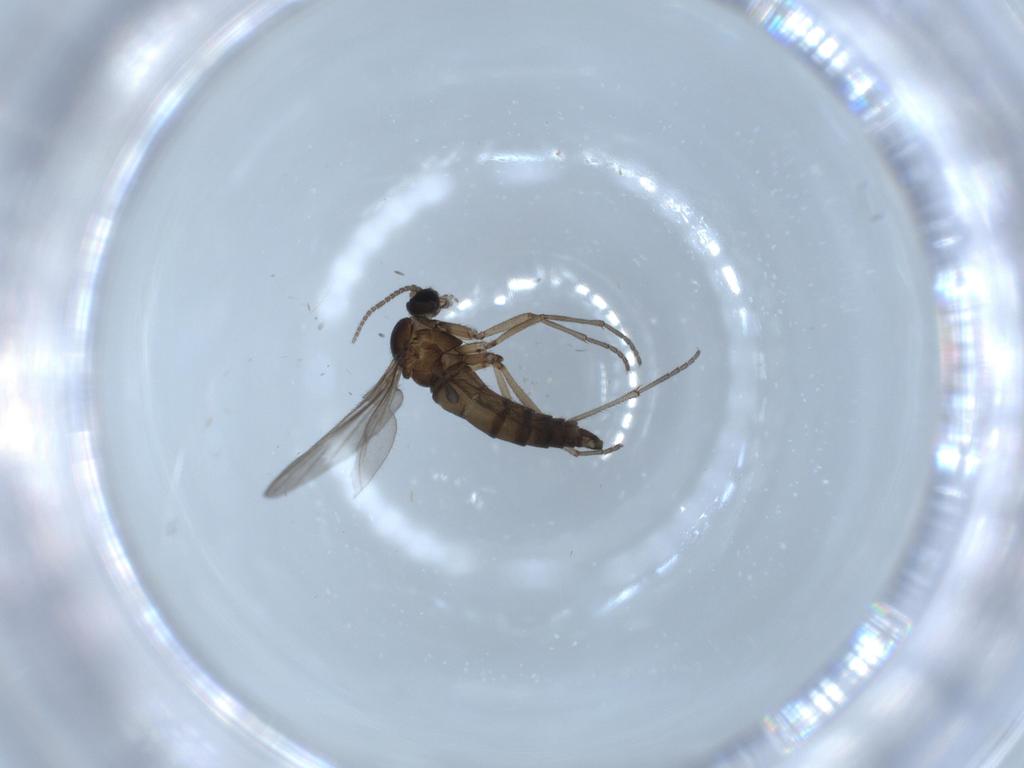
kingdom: Animalia
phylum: Arthropoda
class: Insecta
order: Diptera
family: Sciaridae
